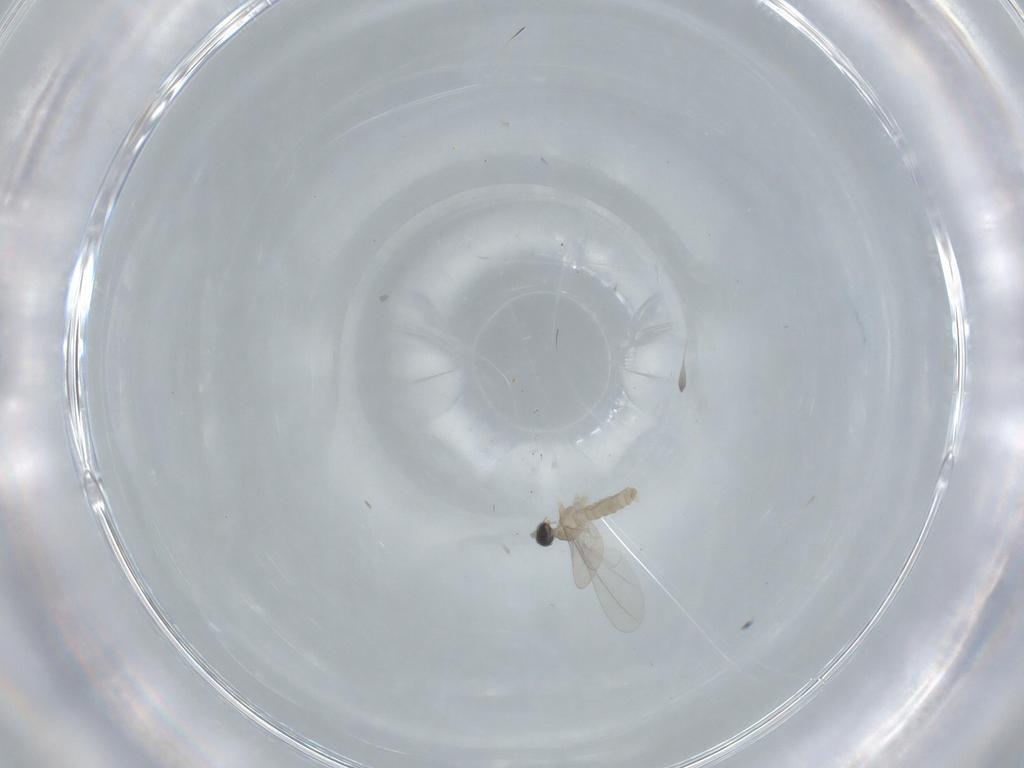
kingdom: Animalia
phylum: Arthropoda
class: Insecta
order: Diptera
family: Cecidomyiidae
